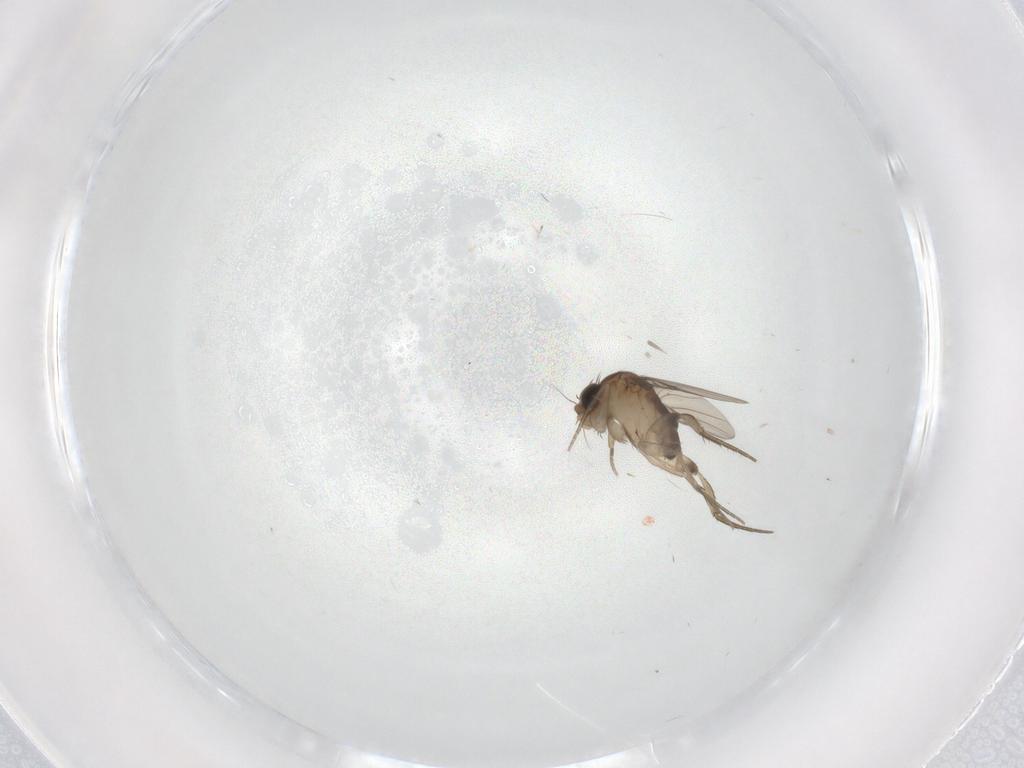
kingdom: Animalia
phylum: Arthropoda
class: Insecta
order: Diptera
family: Phoridae
